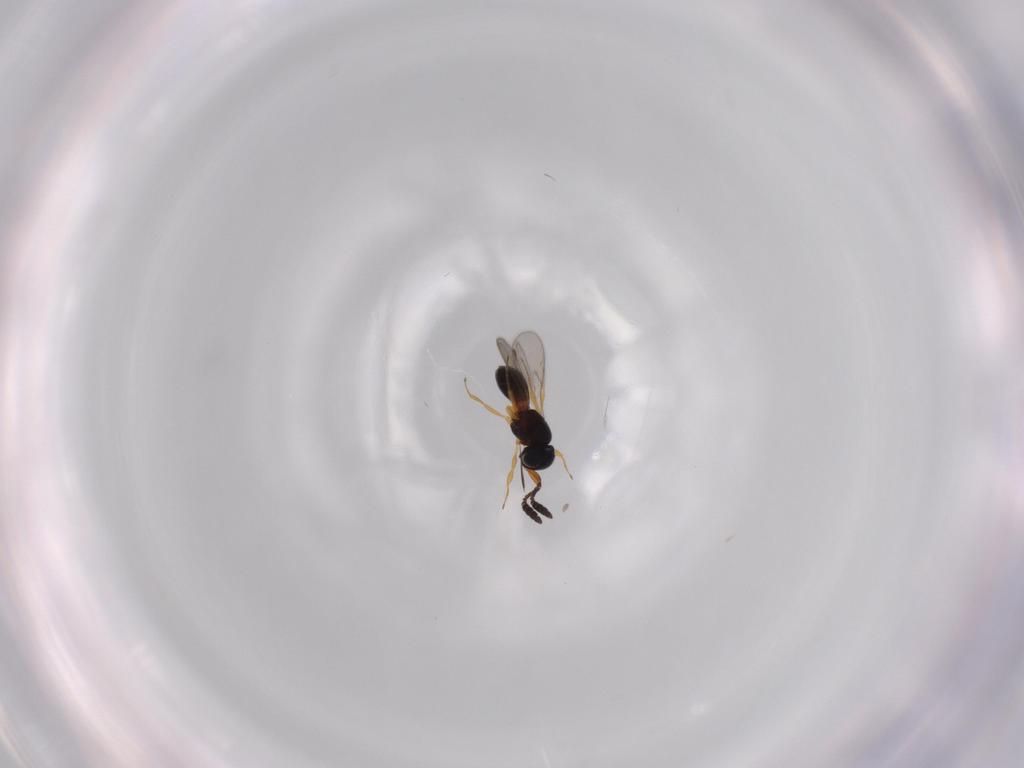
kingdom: Animalia
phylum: Arthropoda
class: Insecta
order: Hymenoptera
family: Scelionidae
